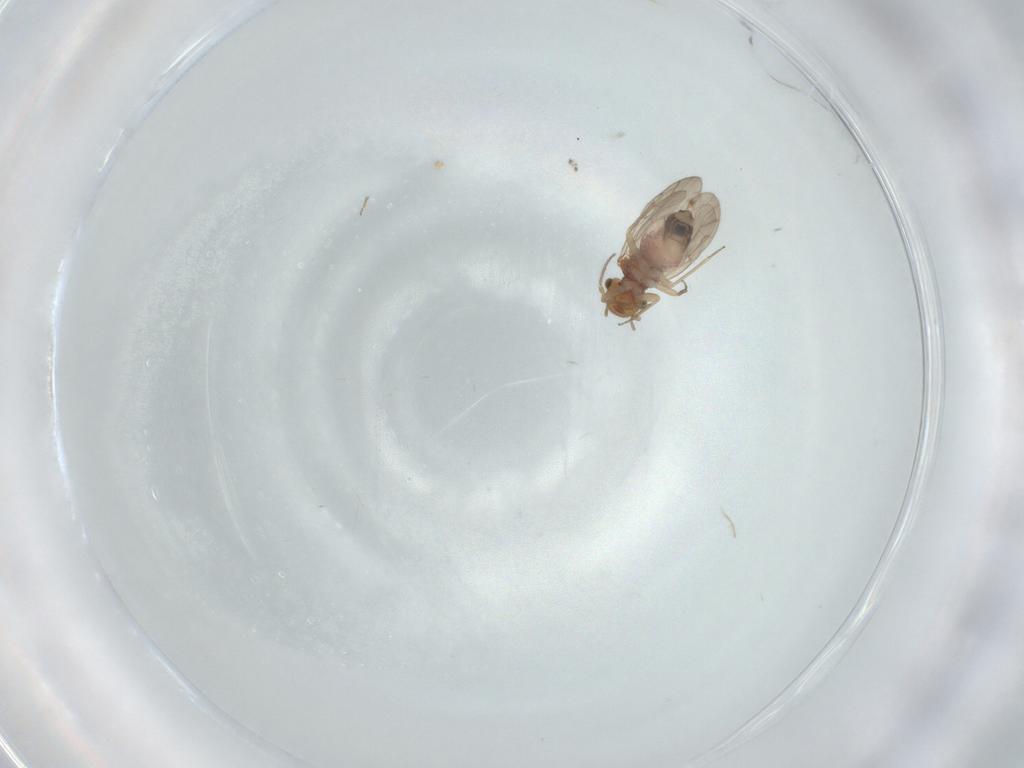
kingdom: Animalia
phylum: Arthropoda
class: Insecta
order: Psocodea
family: Ectopsocidae
